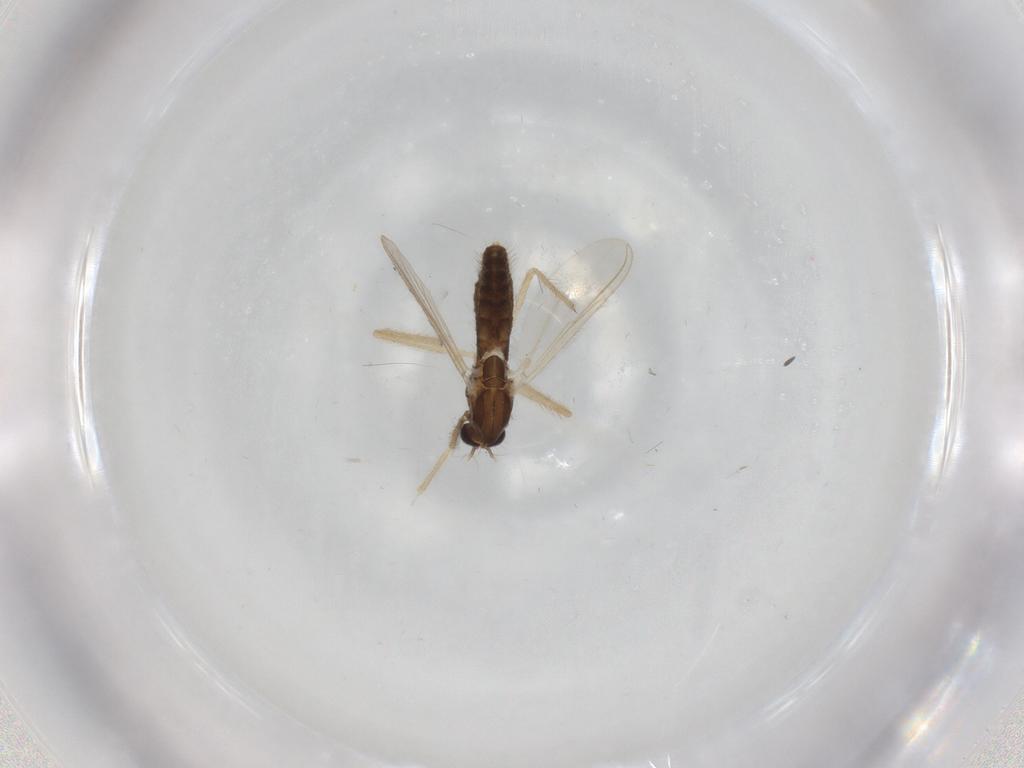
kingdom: Animalia
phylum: Arthropoda
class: Insecta
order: Diptera
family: Chironomidae
